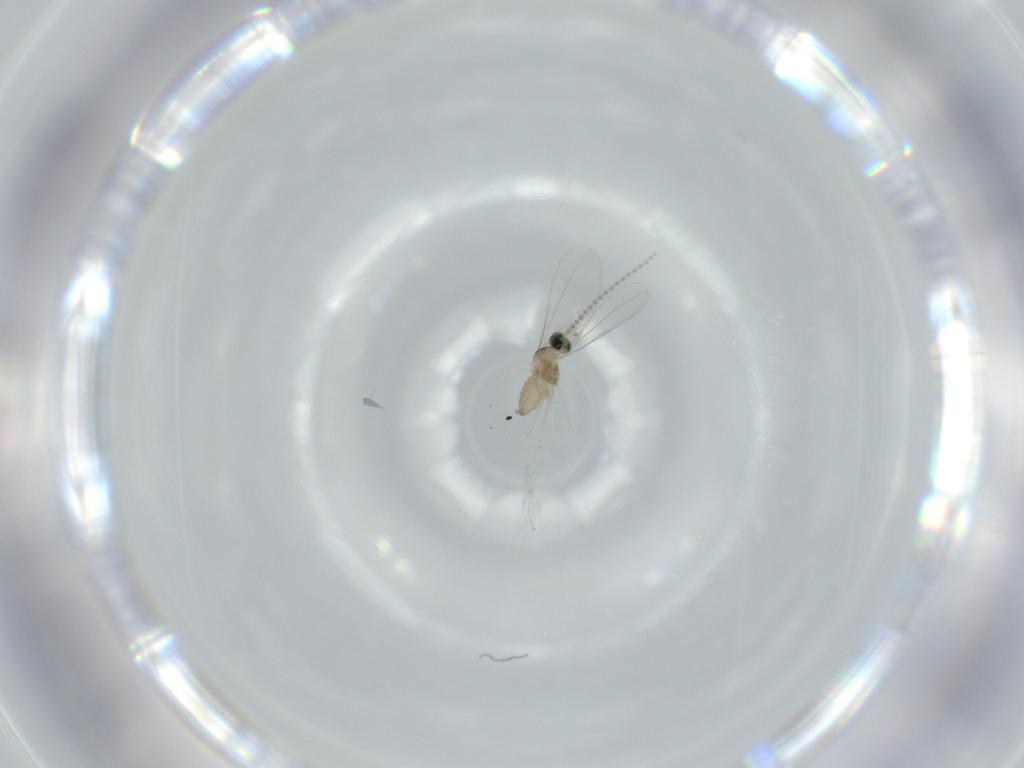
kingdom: Animalia
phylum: Arthropoda
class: Insecta
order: Diptera
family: Cecidomyiidae
